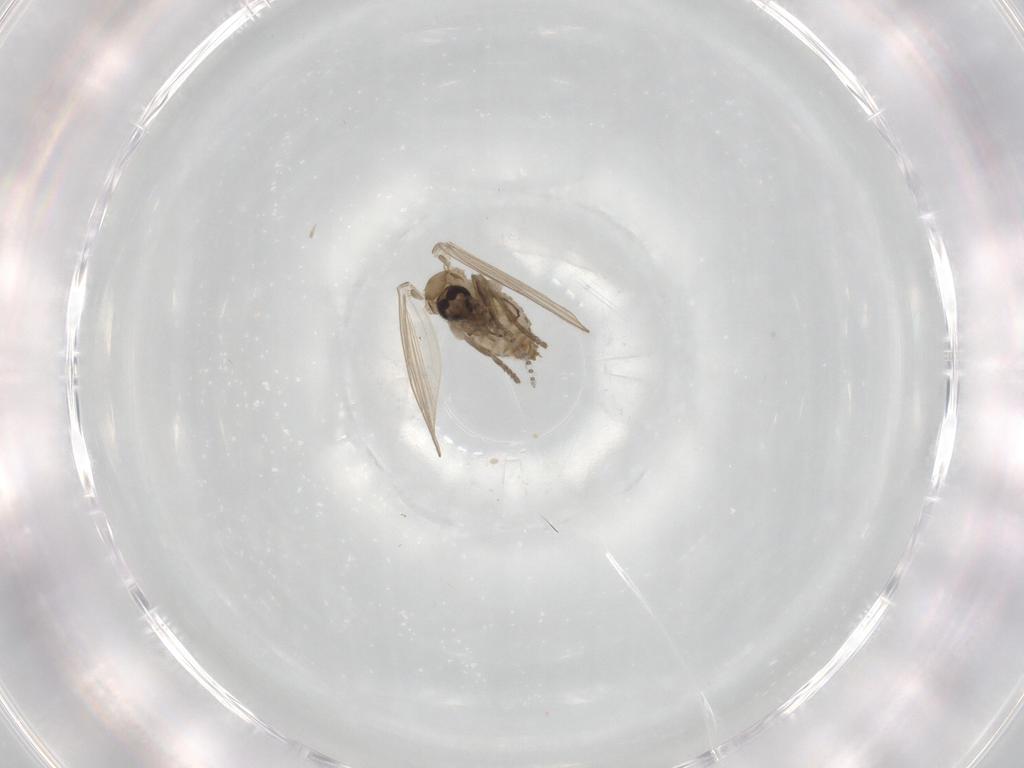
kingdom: Animalia
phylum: Arthropoda
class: Insecta
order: Diptera
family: Psychodidae
